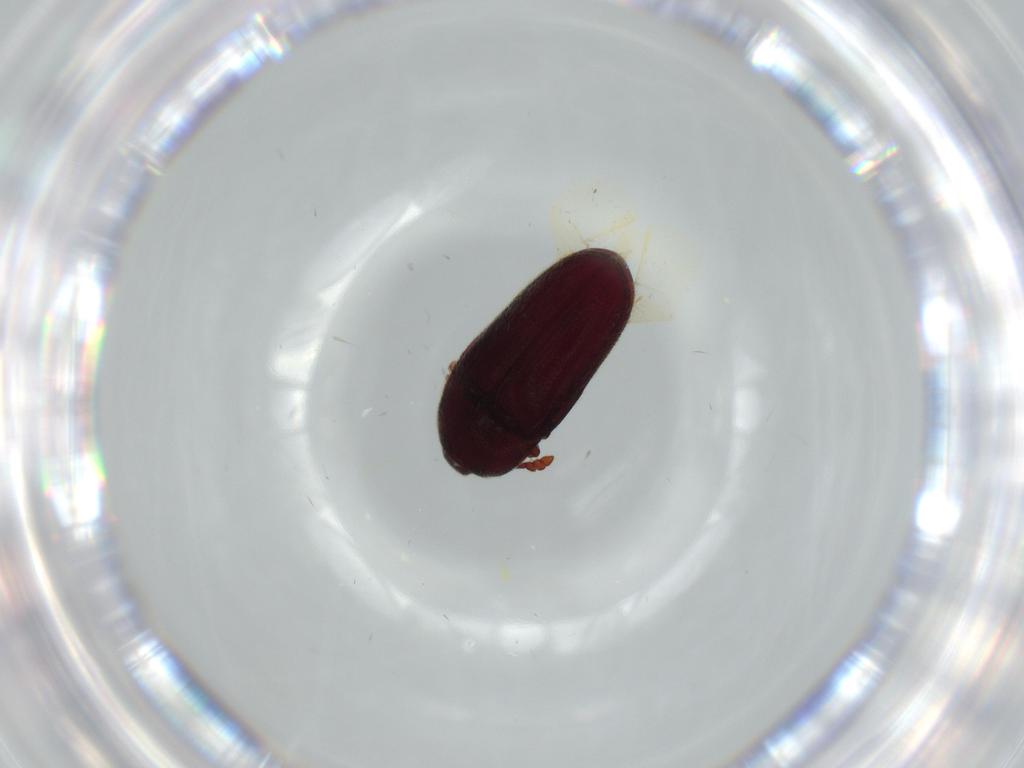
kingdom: Animalia
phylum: Arthropoda
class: Insecta
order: Coleoptera
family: Throscidae
